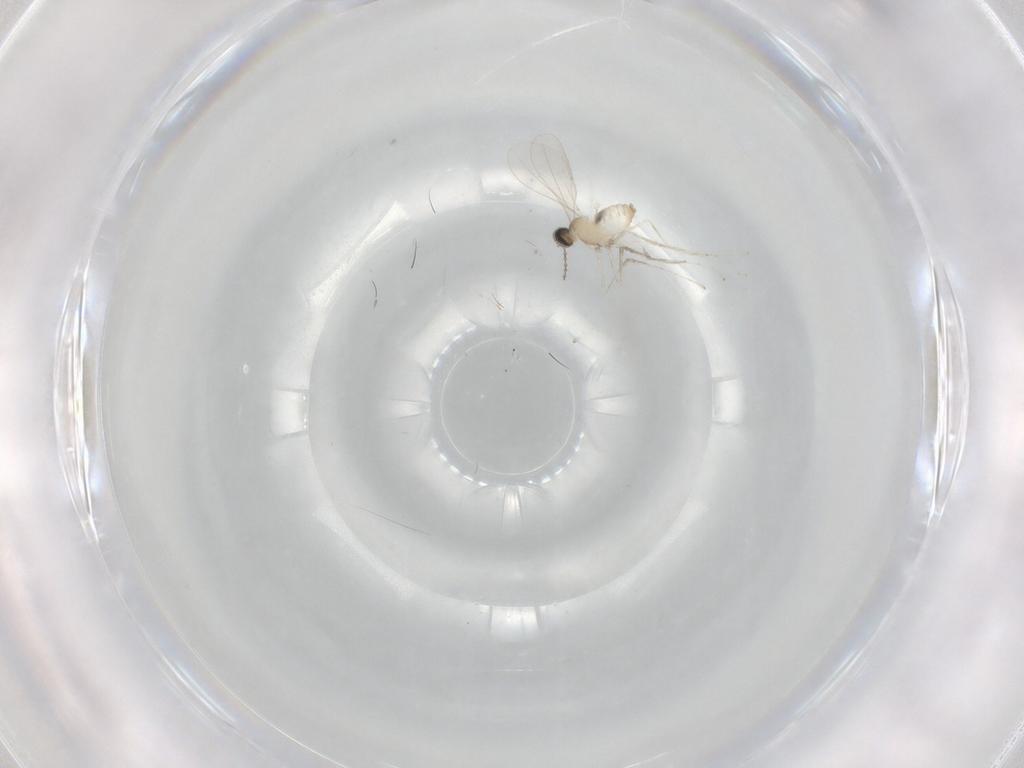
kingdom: Animalia
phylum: Arthropoda
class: Insecta
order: Diptera
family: Cecidomyiidae
